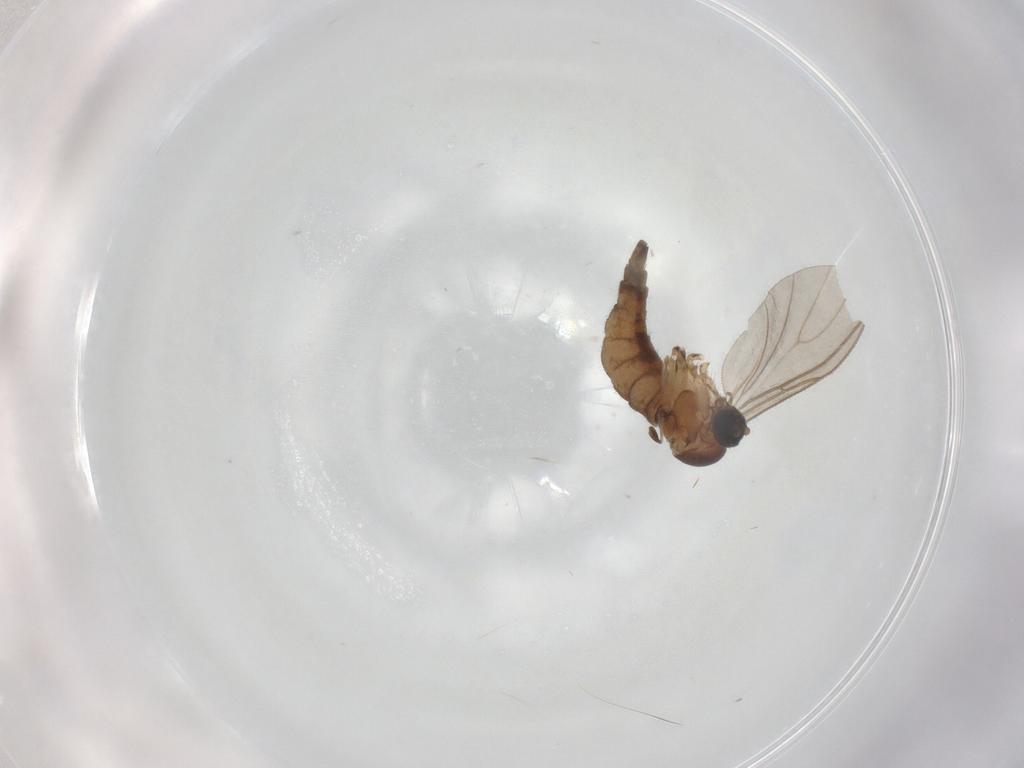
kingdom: Animalia
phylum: Arthropoda
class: Insecta
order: Diptera
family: Sciaridae
